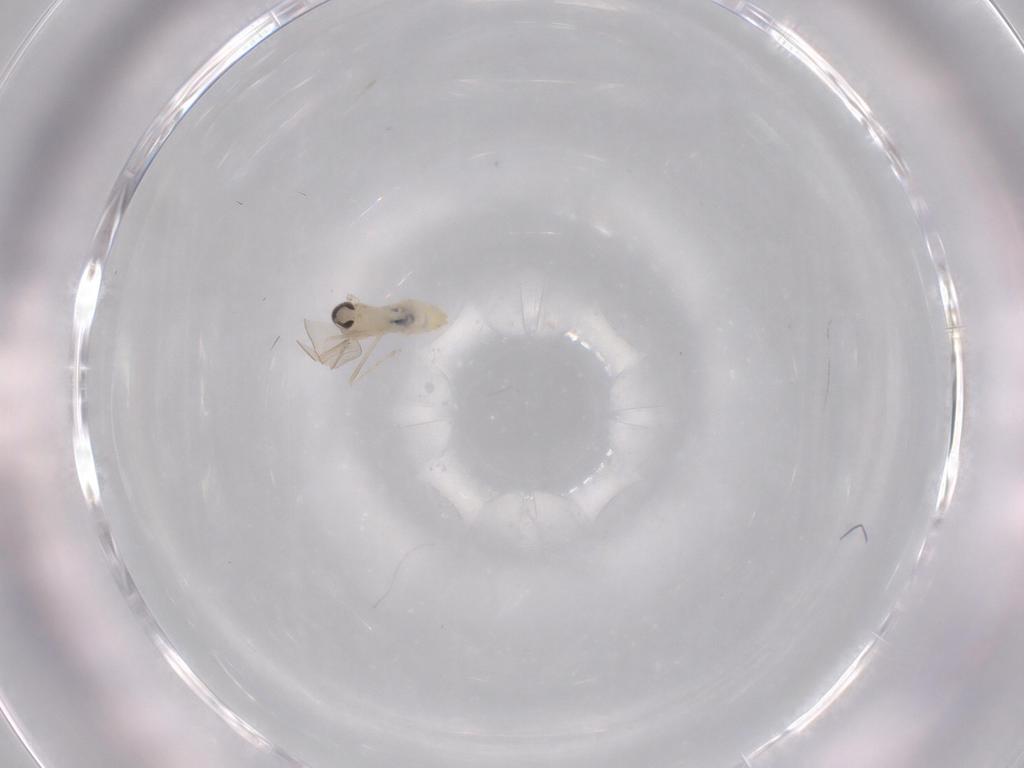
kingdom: Animalia
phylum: Arthropoda
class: Insecta
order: Diptera
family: Cecidomyiidae
